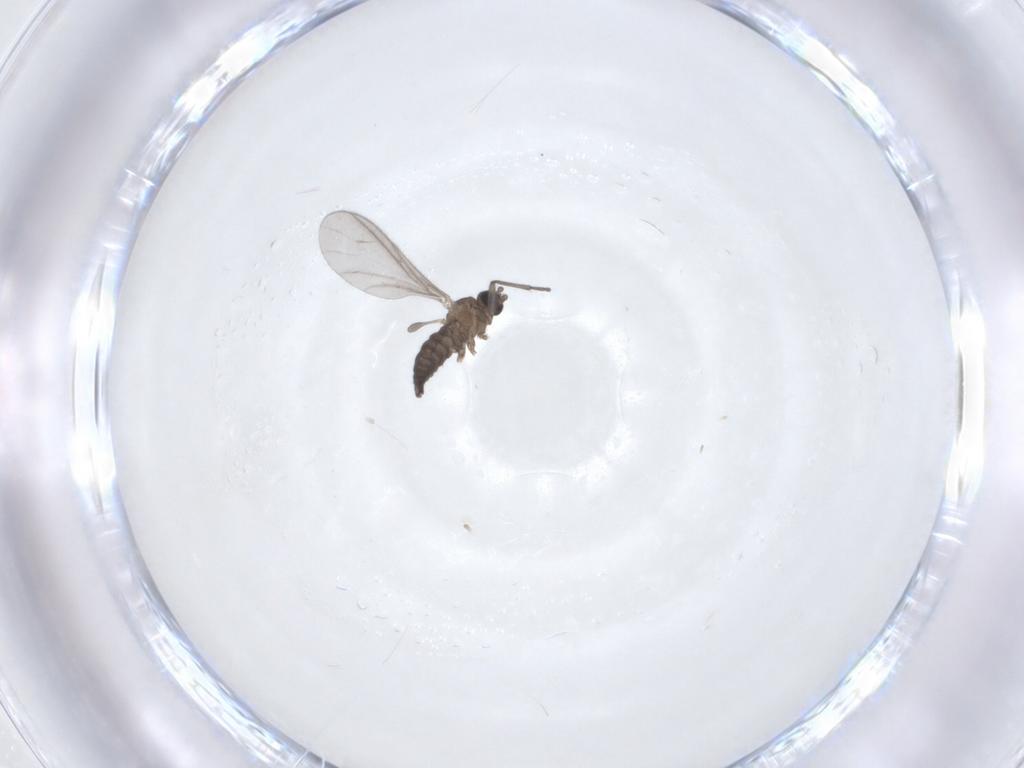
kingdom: Animalia
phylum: Arthropoda
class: Insecta
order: Diptera
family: Sciaridae
